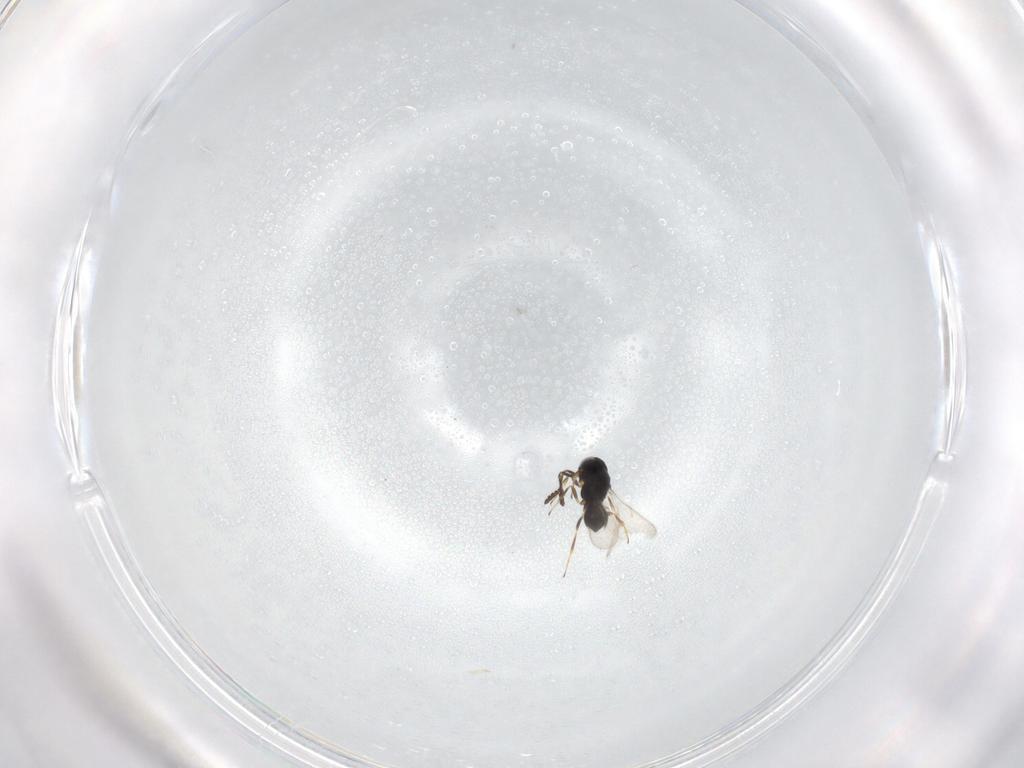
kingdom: Animalia
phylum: Arthropoda
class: Insecta
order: Hymenoptera
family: Scelionidae
